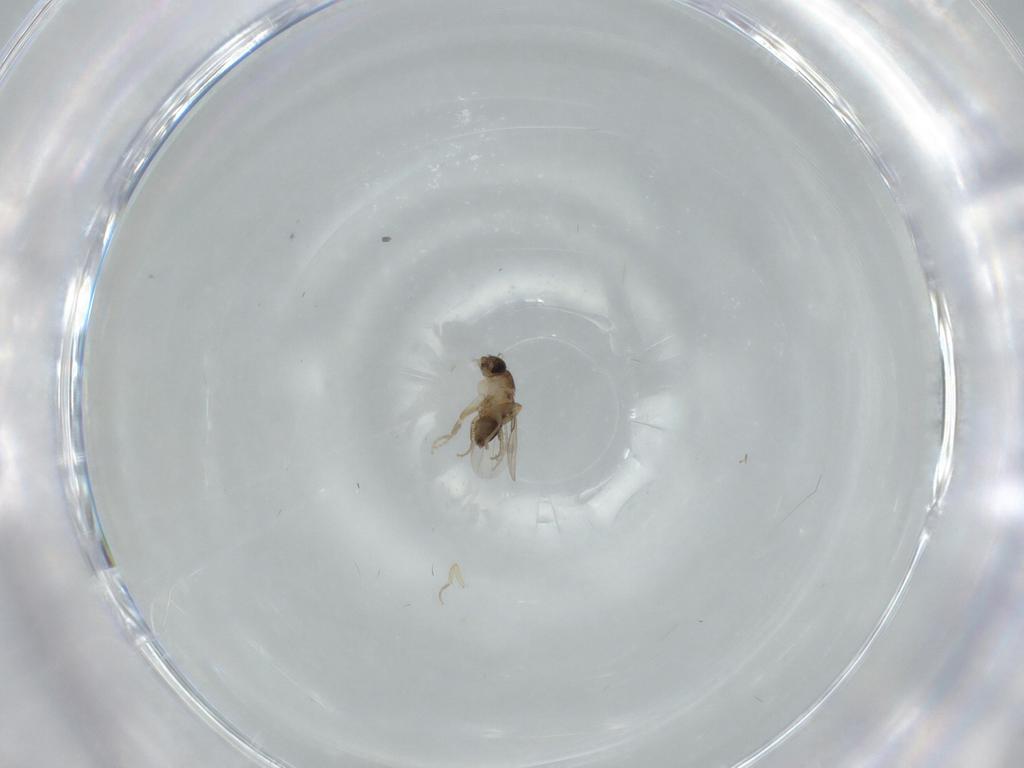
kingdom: Animalia
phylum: Arthropoda
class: Insecta
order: Diptera
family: Phoridae
